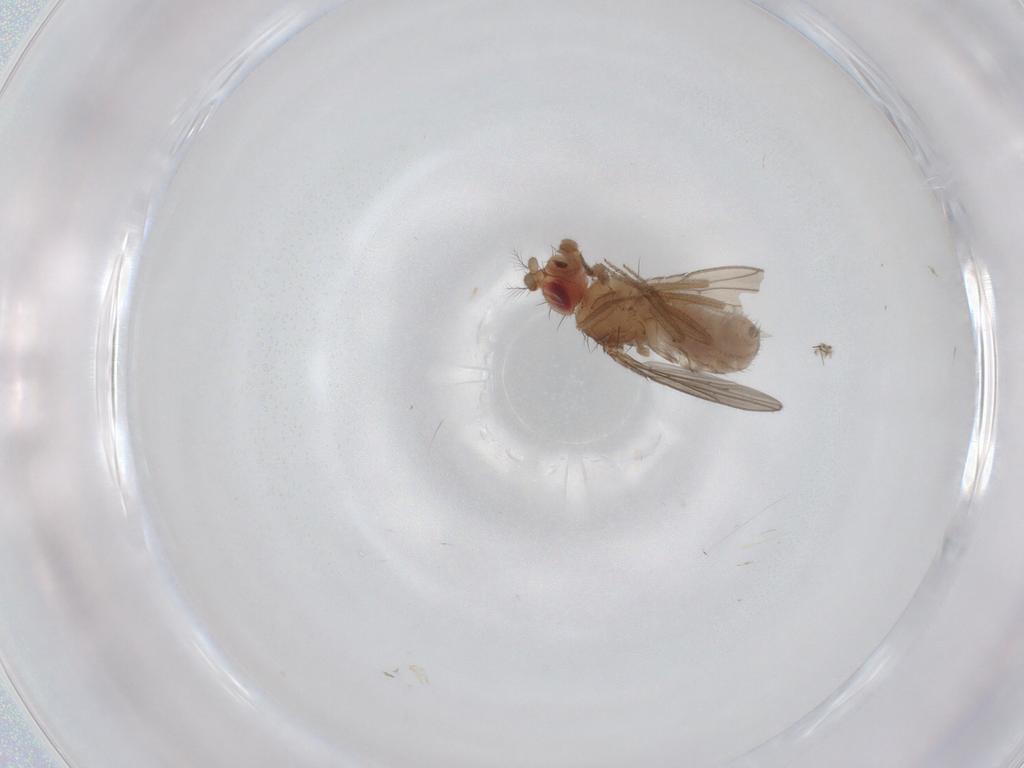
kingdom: Animalia
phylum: Arthropoda
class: Insecta
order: Diptera
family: Drosophilidae
